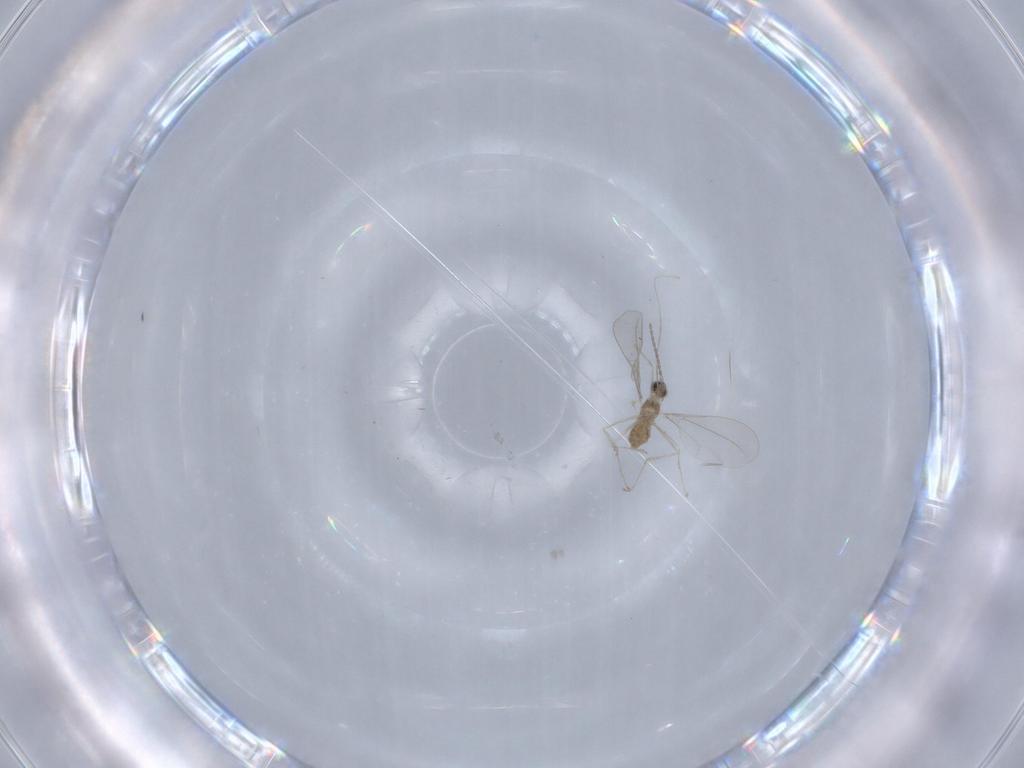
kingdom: Animalia
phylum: Arthropoda
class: Insecta
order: Diptera
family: Cecidomyiidae
